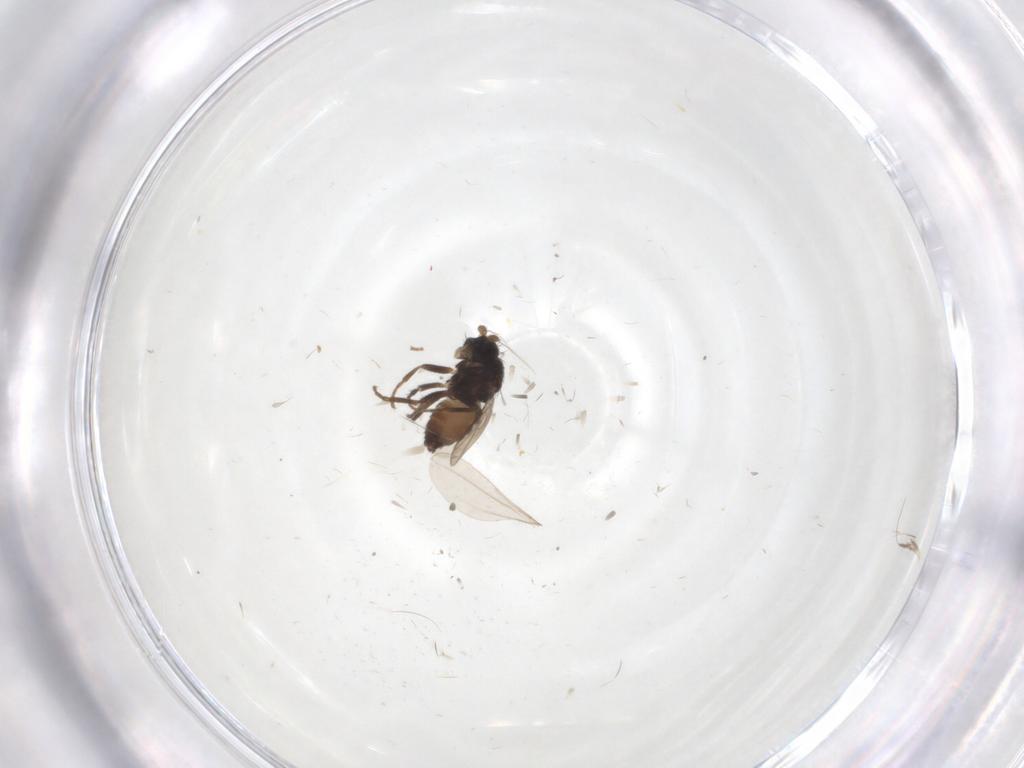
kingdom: Animalia
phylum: Arthropoda
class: Insecta
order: Diptera
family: Sphaeroceridae
